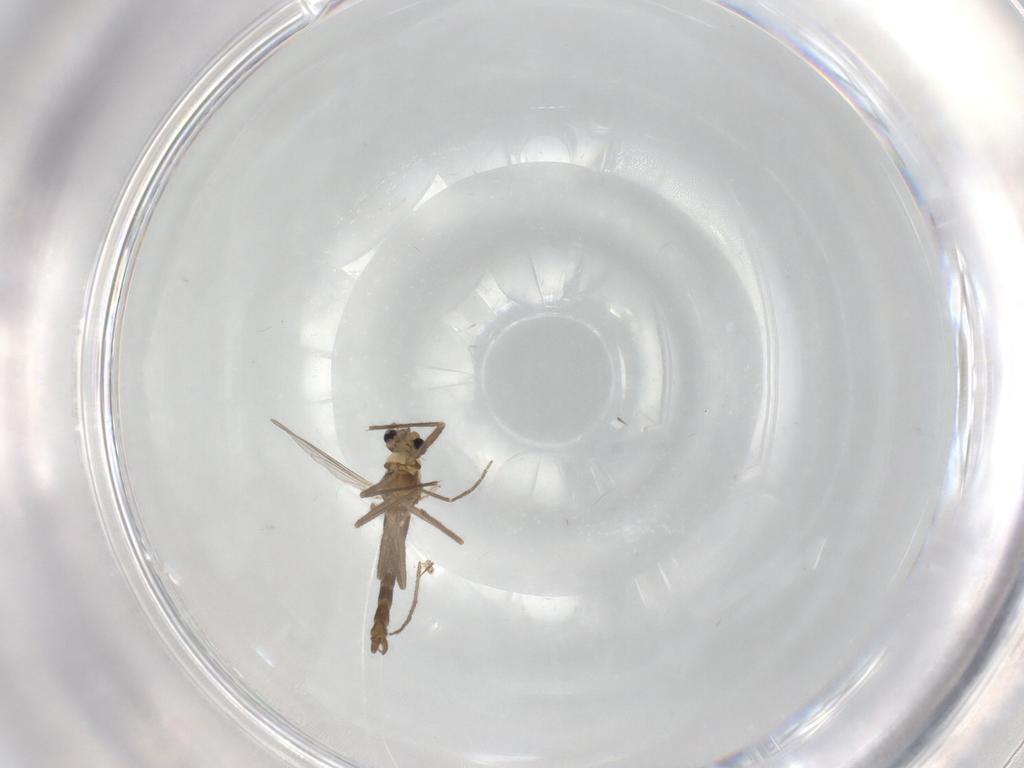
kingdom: Animalia
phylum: Arthropoda
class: Insecta
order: Diptera
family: Chironomidae
